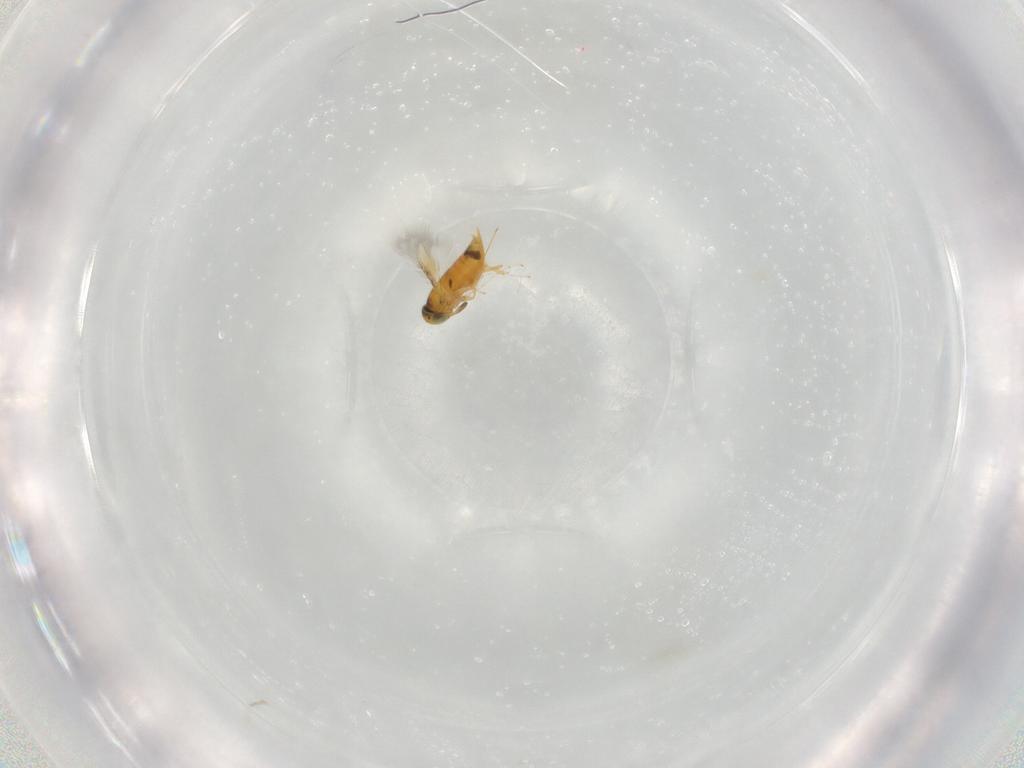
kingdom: Animalia
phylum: Arthropoda
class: Insecta
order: Hymenoptera
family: Signiphoridae
